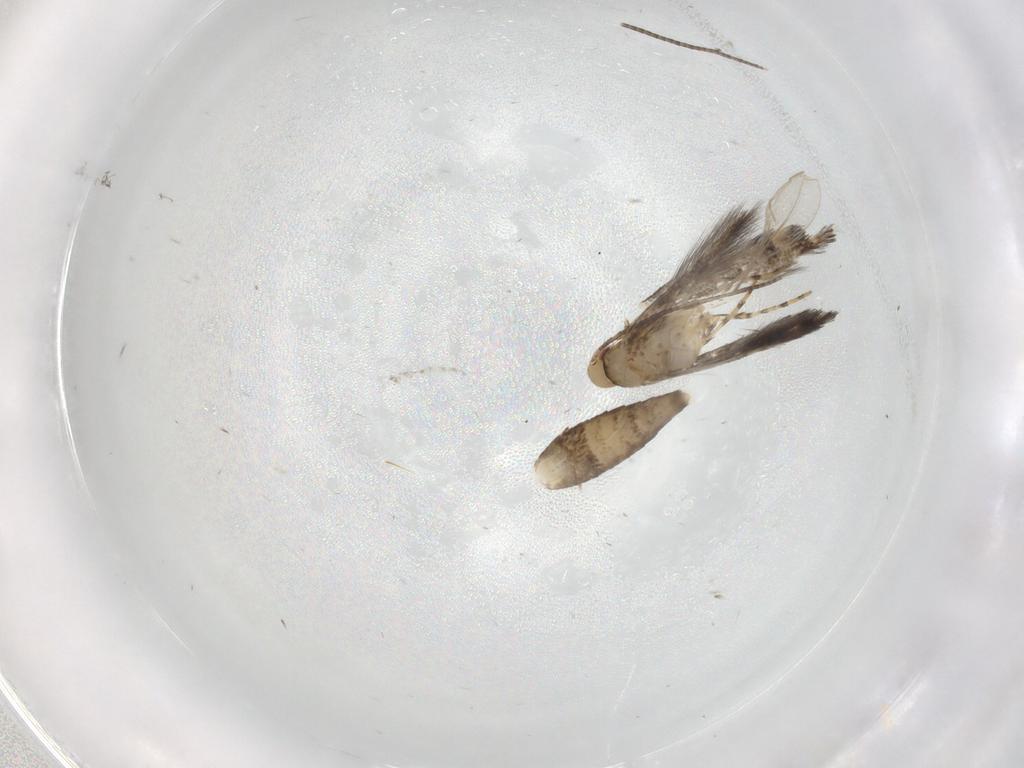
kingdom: Animalia
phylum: Arthropoda
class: Insecta
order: Lepidoptera
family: Gracillariidae
